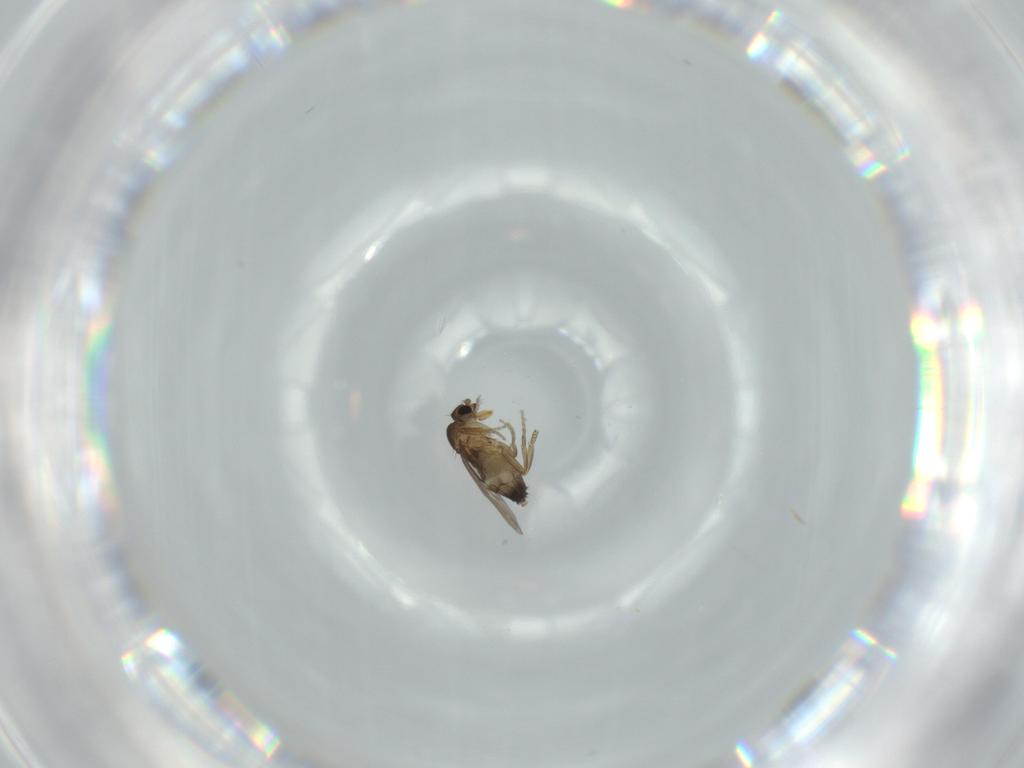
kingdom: Animalia
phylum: Arthropoda
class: Insecta
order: Diptera
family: Phoridae
